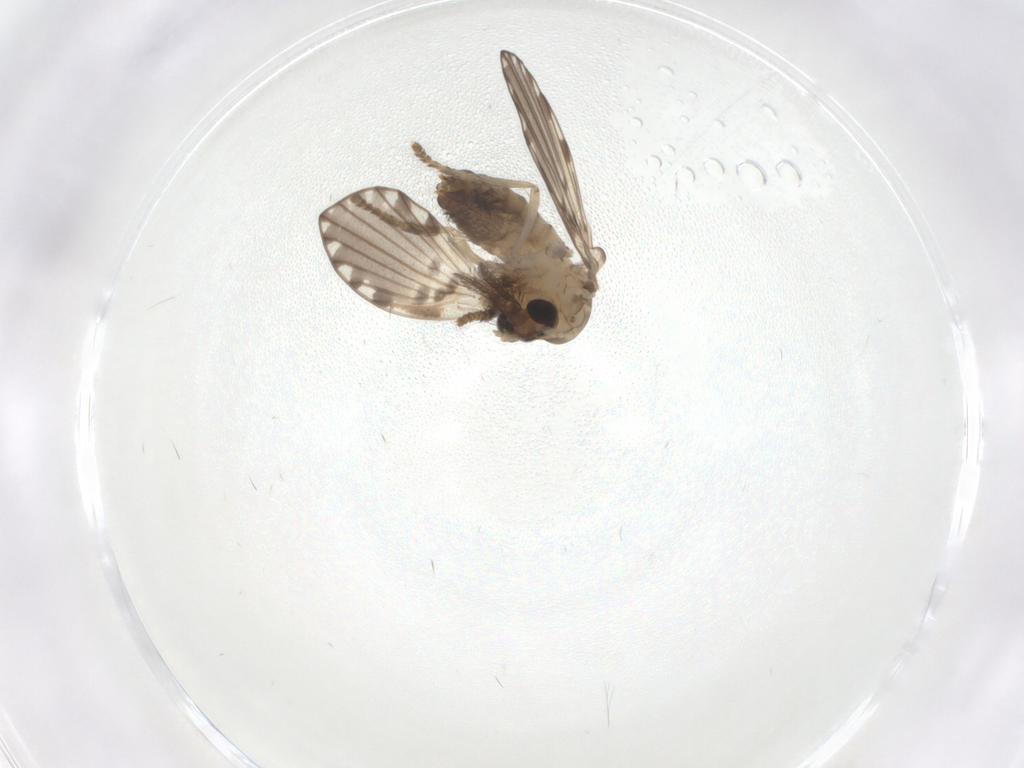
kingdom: Animalia
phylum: Arthropoda
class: Insecta
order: Diptera
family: Psychodidae
